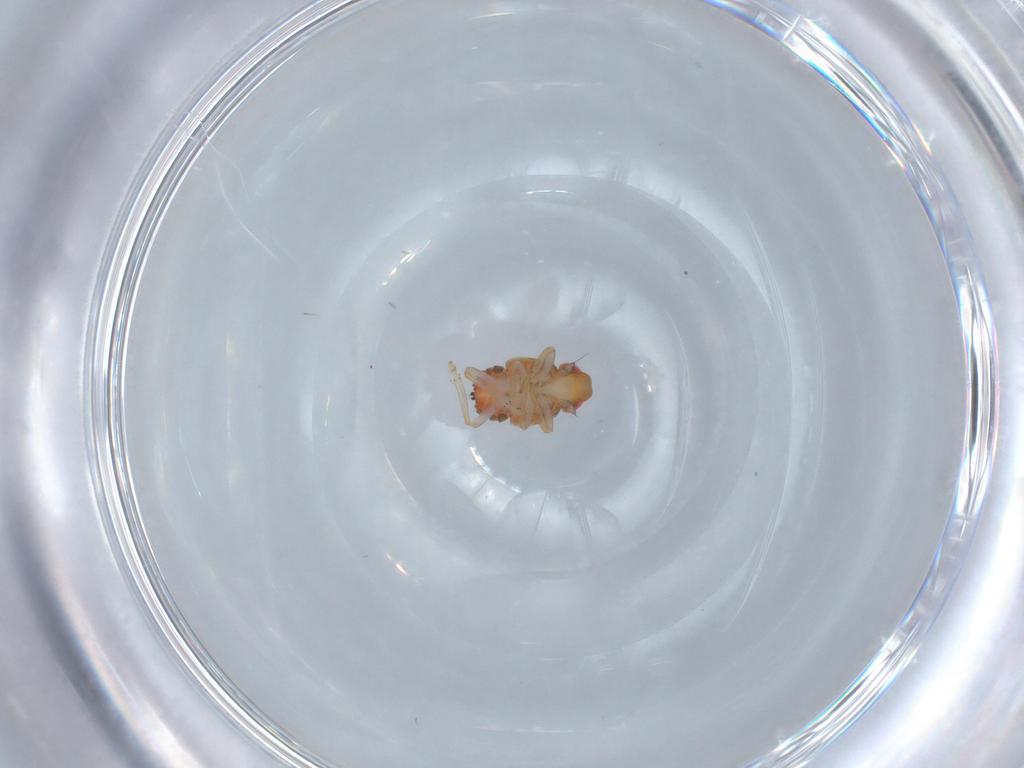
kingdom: Animalia
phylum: Arthropoda
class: Insecta
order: Hemiptera
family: Issidae
